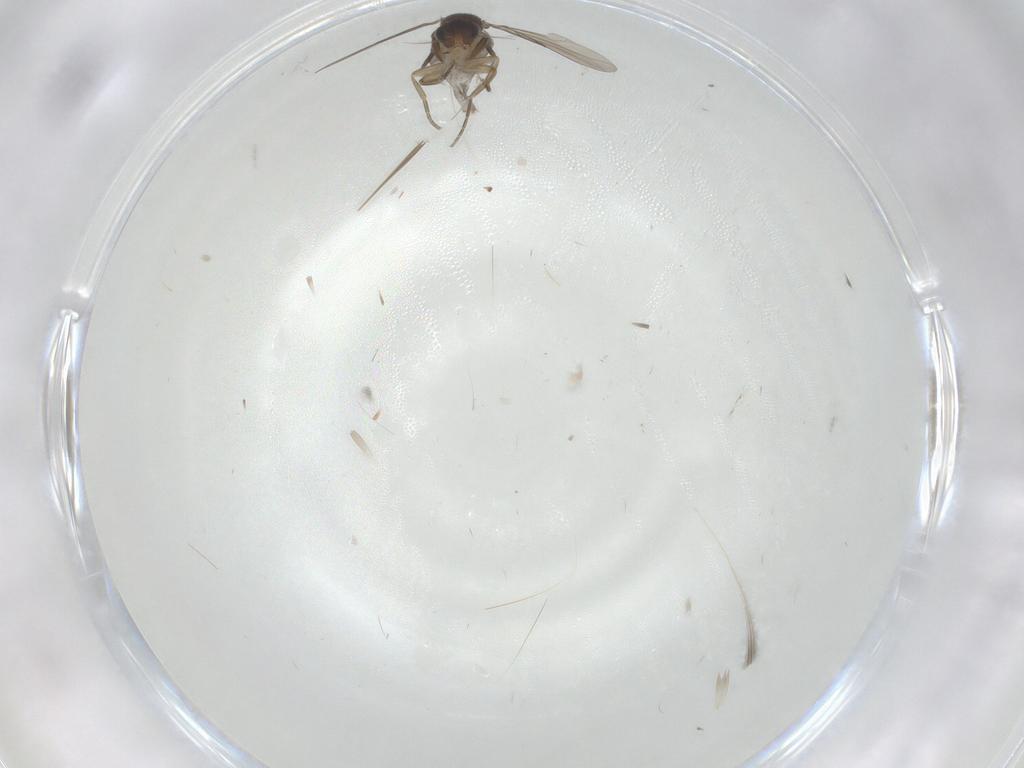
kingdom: Animalia
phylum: Arthropoda
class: Insecta
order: Diptera
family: Phoridae
